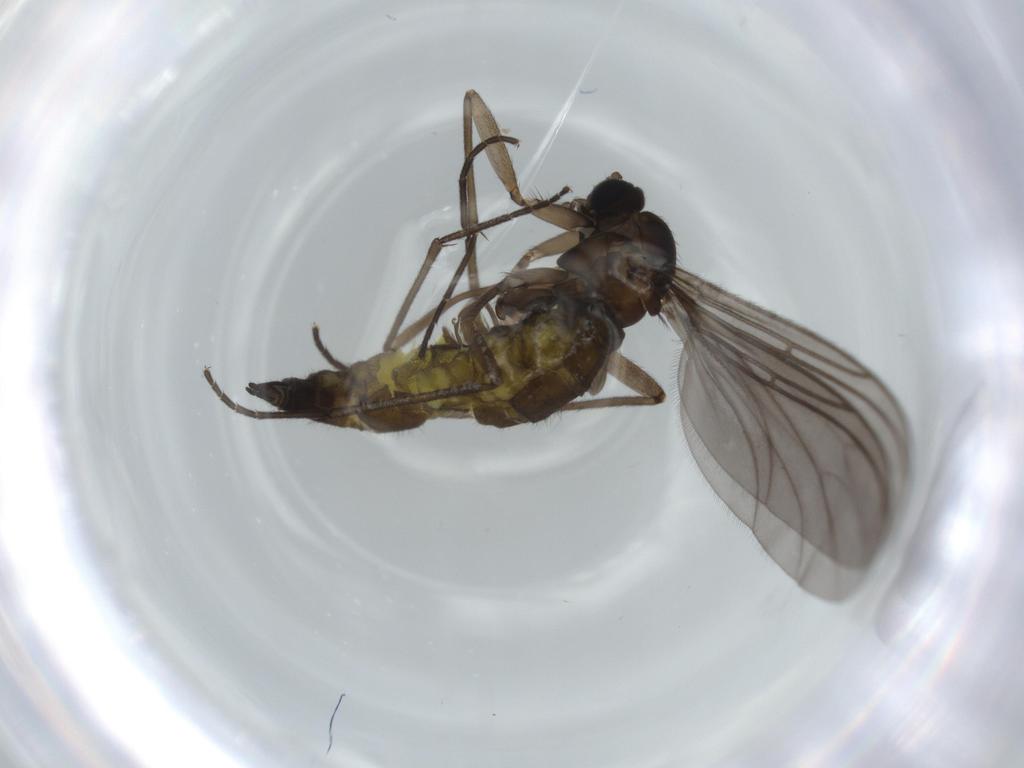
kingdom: Animalia
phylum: Arthropoda
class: Insecta
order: Diptera
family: Sciaridae
